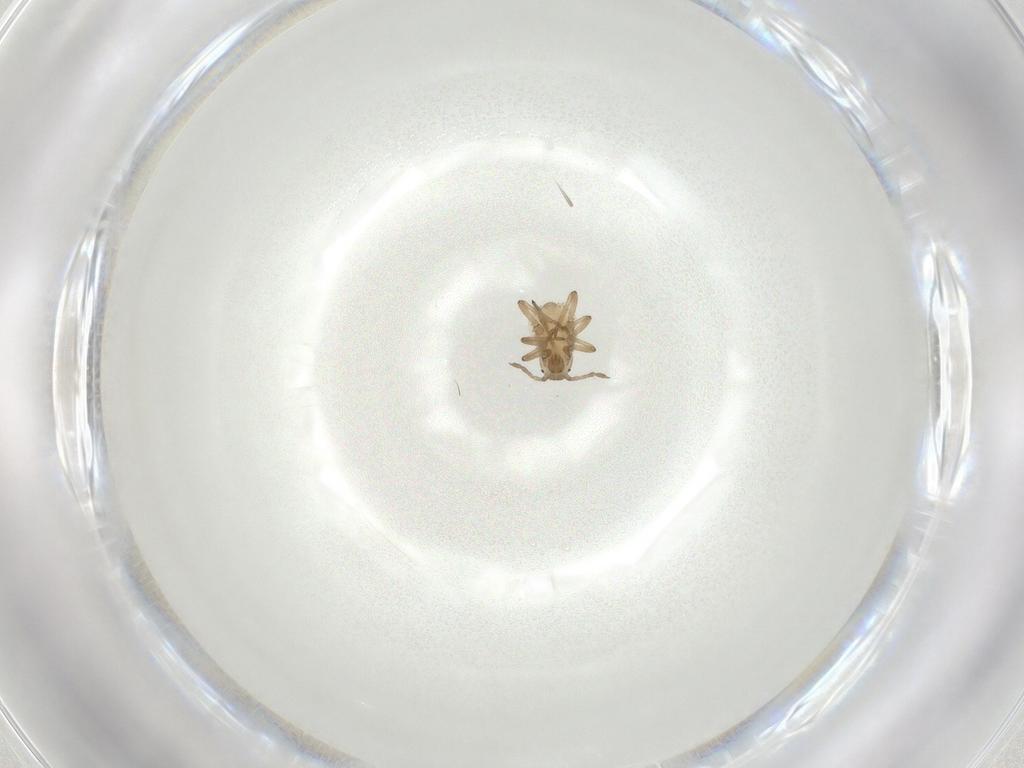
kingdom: Animalia
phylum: Arthropoda
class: Insecta
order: Hemiptera
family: Aphididae
